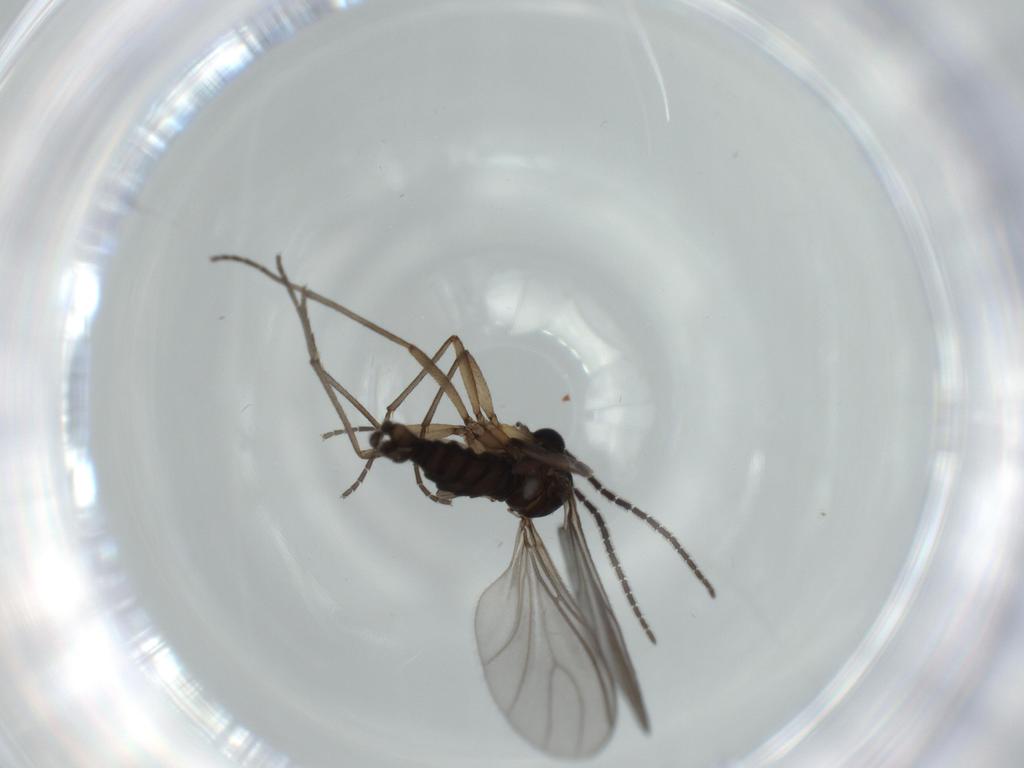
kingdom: Animalia
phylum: Arthropoda
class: Insecta
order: Diptera
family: Sciaridae
